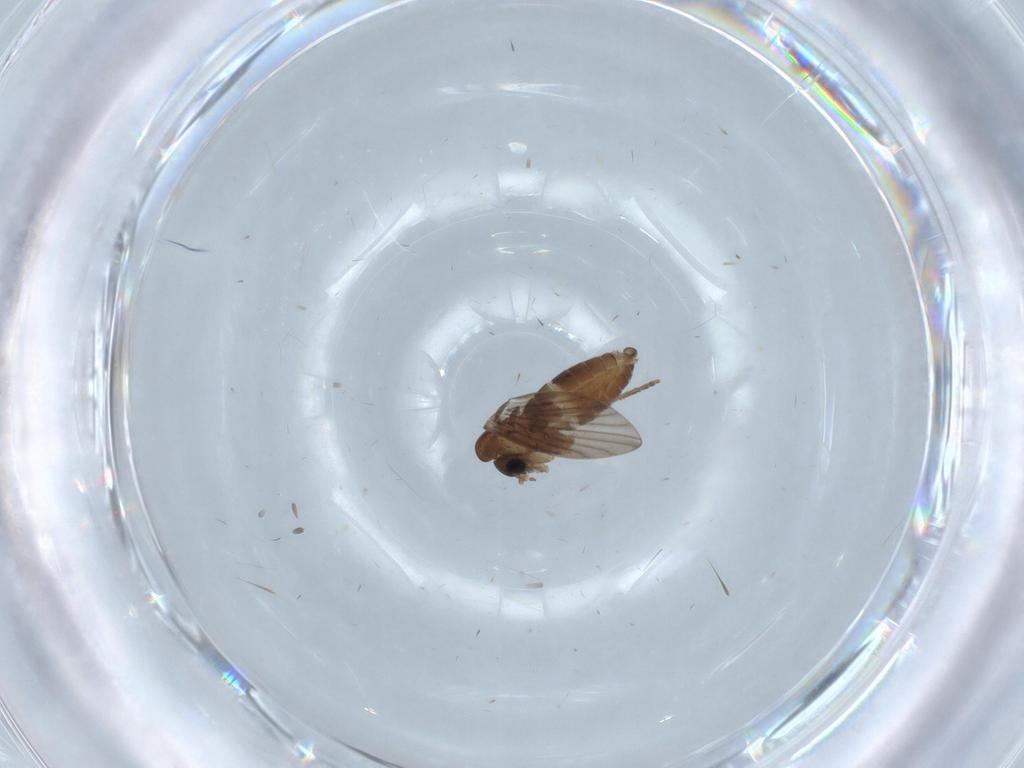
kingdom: Animalia
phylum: Arthropoda
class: Insecta
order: Diptera
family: Psychodidae
